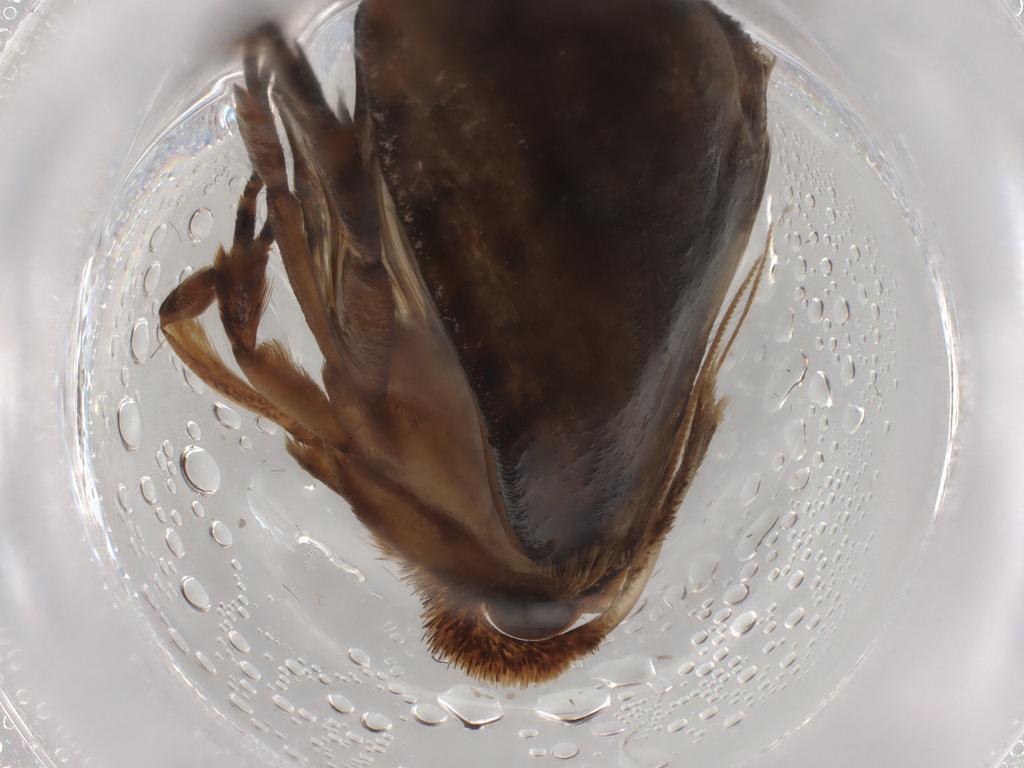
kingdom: Animalia
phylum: Arthropoda
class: Insecta
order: Lepidoptera
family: Tineidae
